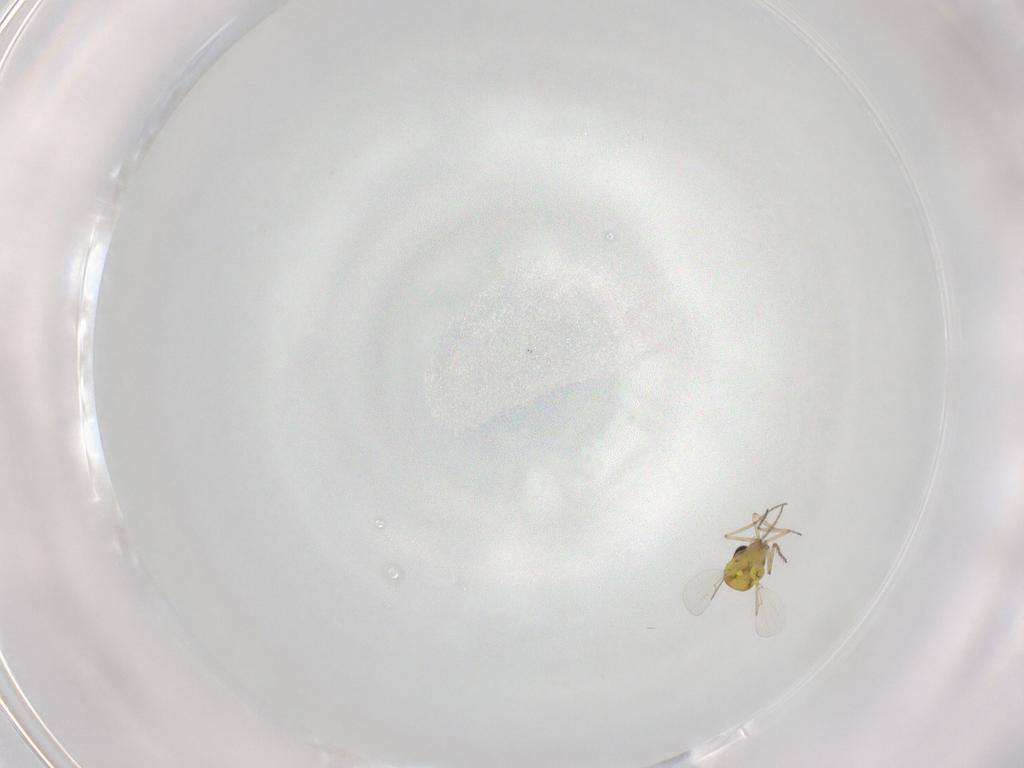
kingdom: Animalia
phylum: Arthropoda
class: Insecta
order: Diptera
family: Ceratopogonidae
